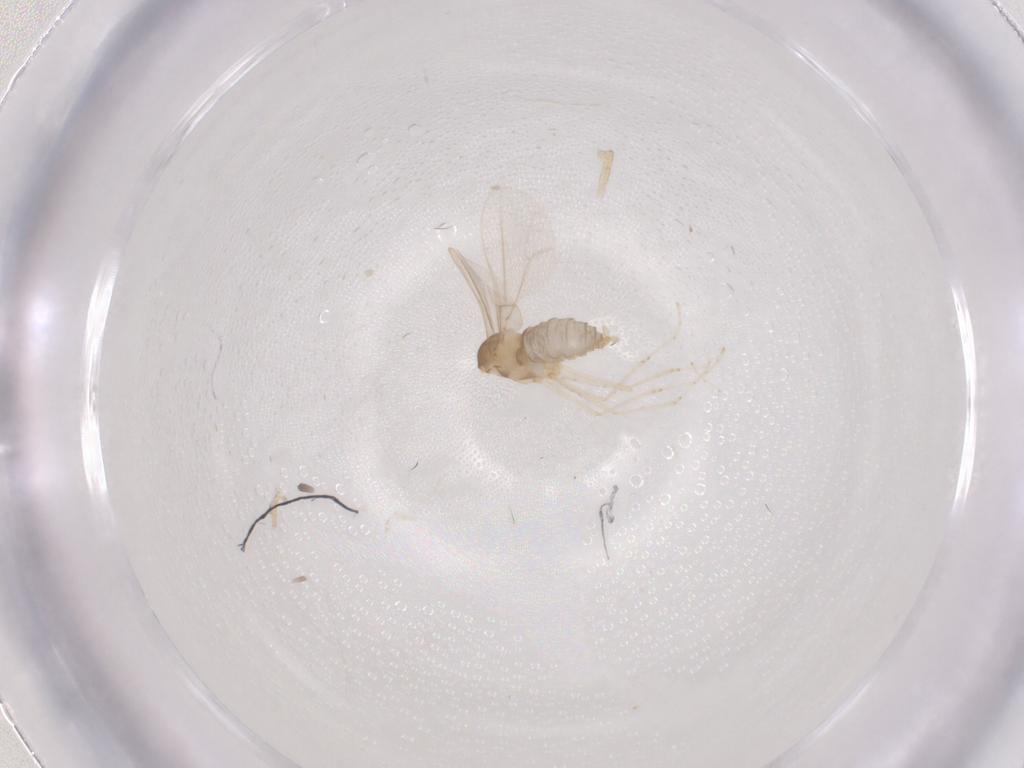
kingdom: Animalia
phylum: Arthropoda
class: Insecta
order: Diptera
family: Cecidomyiidae
